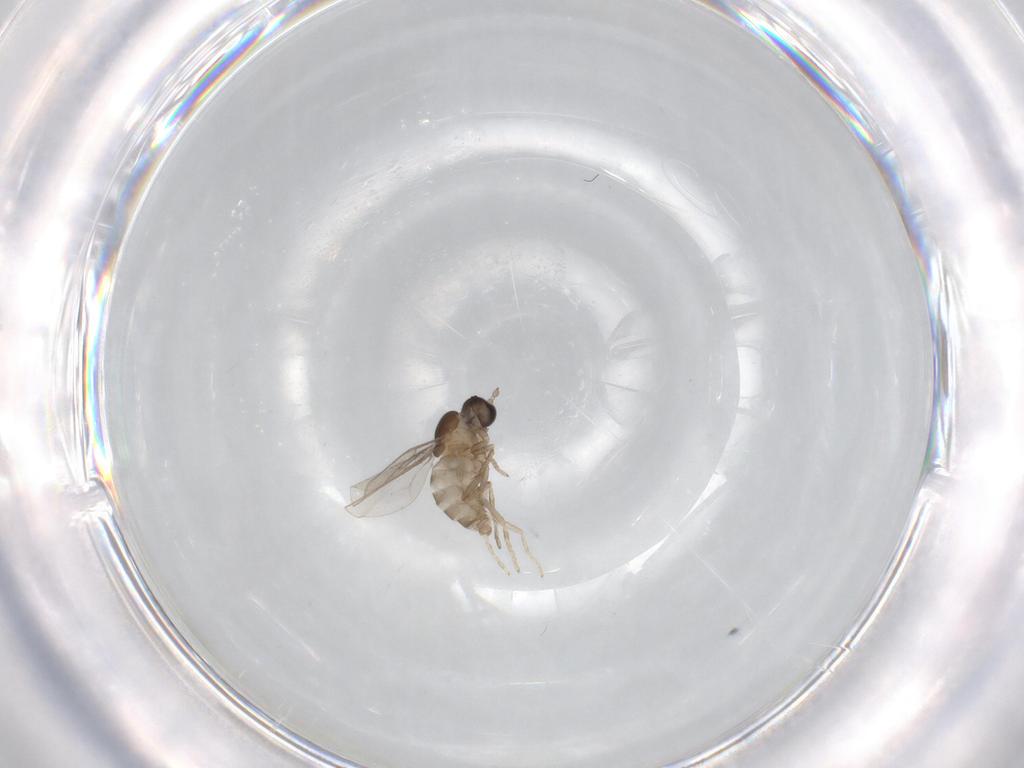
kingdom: Animalia
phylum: Arthropoda
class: Insecta
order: Diptera
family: Cecidomyiidae
